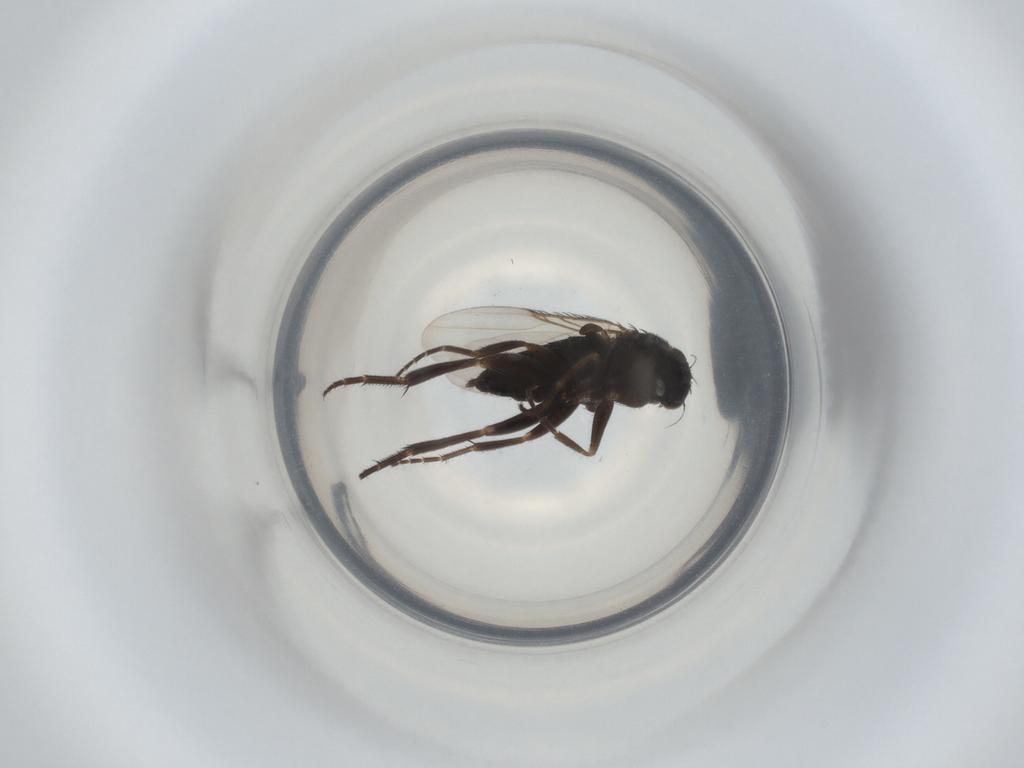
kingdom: Animalia
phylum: Arthropoda
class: Insecta
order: Diptera
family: Phoridae
